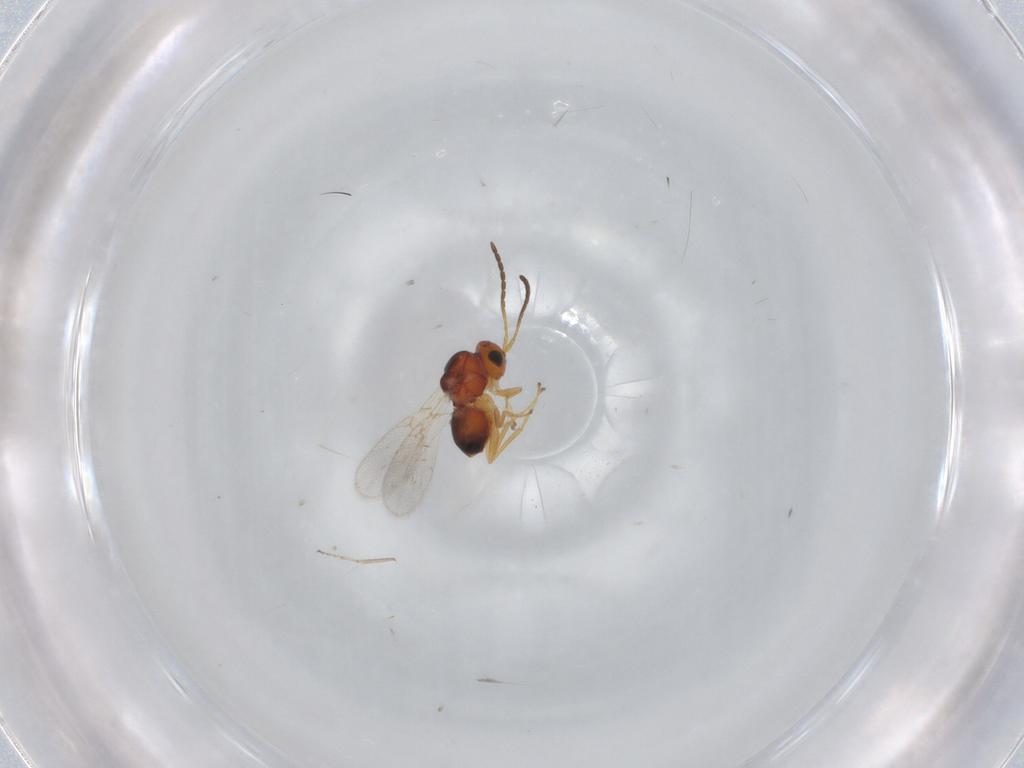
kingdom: Animalia
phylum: Arthropoda
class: Insecta
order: Hymenoptera
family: Figitidae
